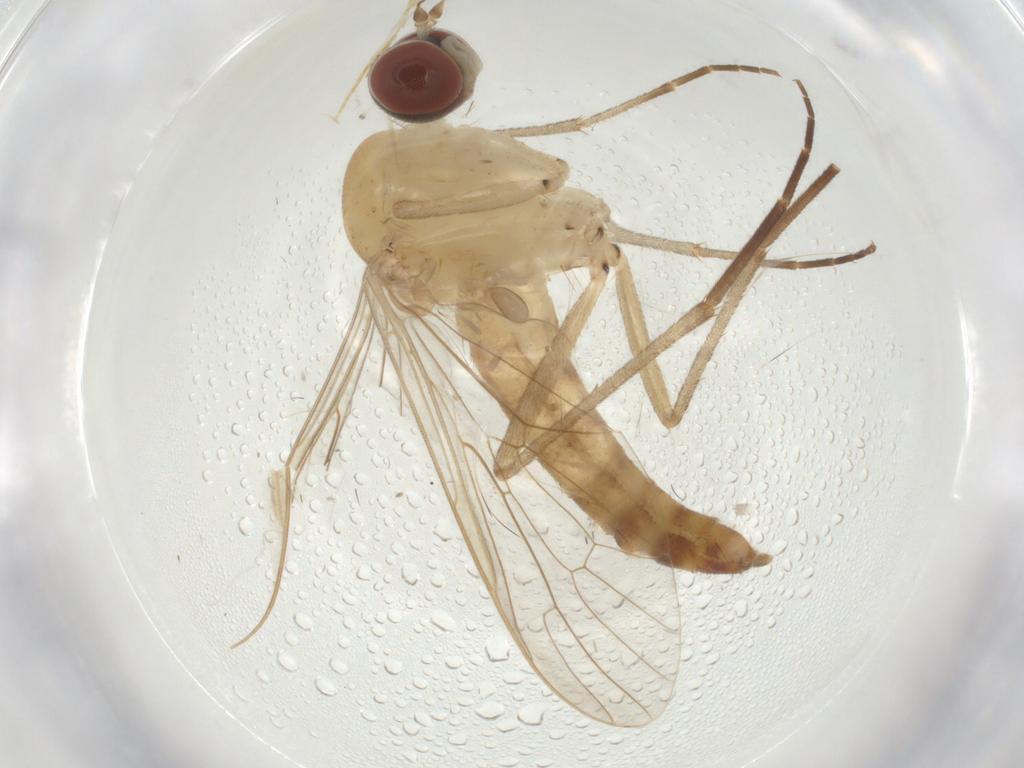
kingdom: Animalia
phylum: Arthropoda
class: Insecta
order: Diptera
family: Apsilocephalidae
